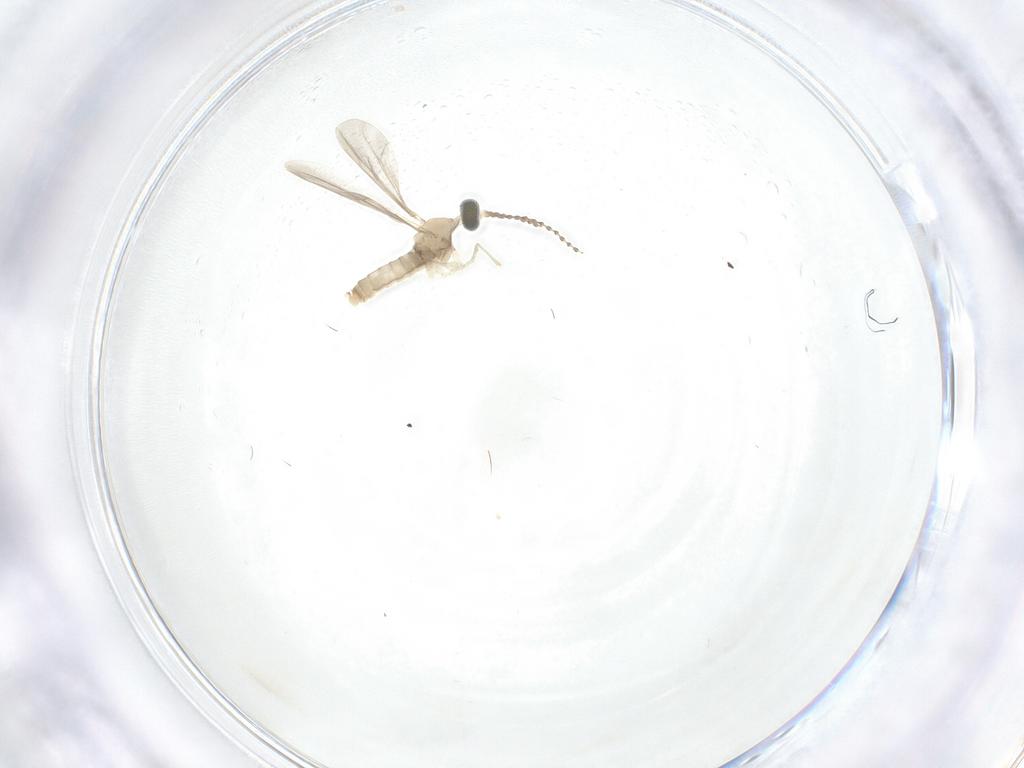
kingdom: Animalia
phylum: Arthropoda
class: Insecta
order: Diptera
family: Cecidomyiidae
